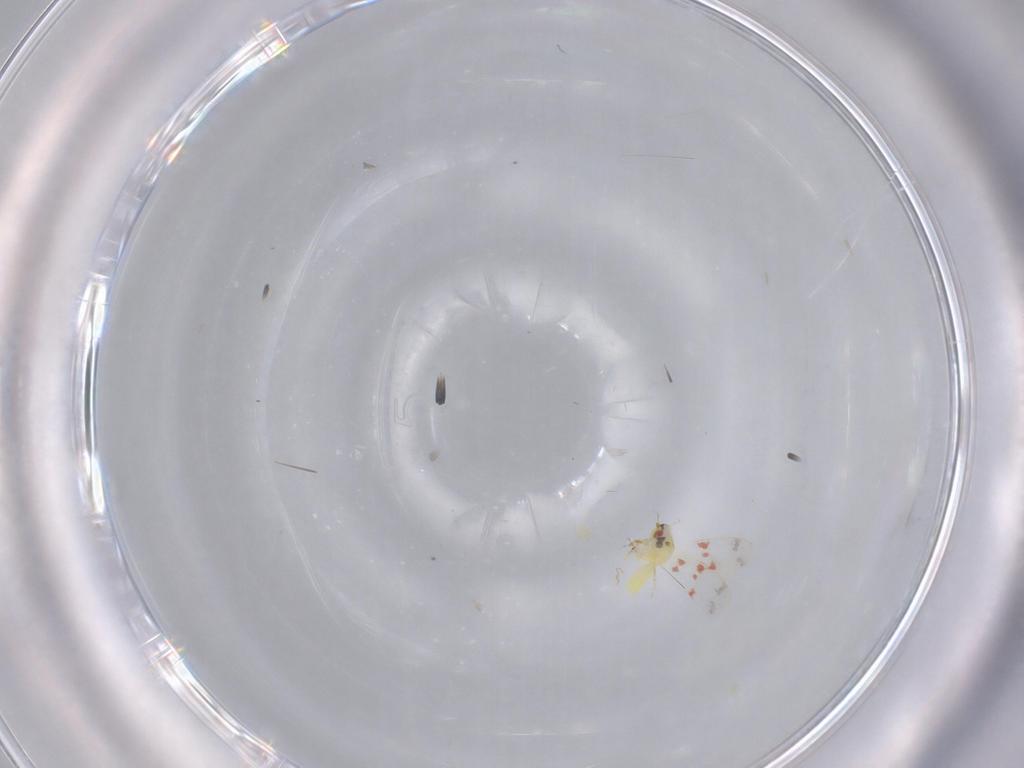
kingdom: Animalia
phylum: Arthropoda
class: Insecta
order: Hemiptera
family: Aleyrodidae
